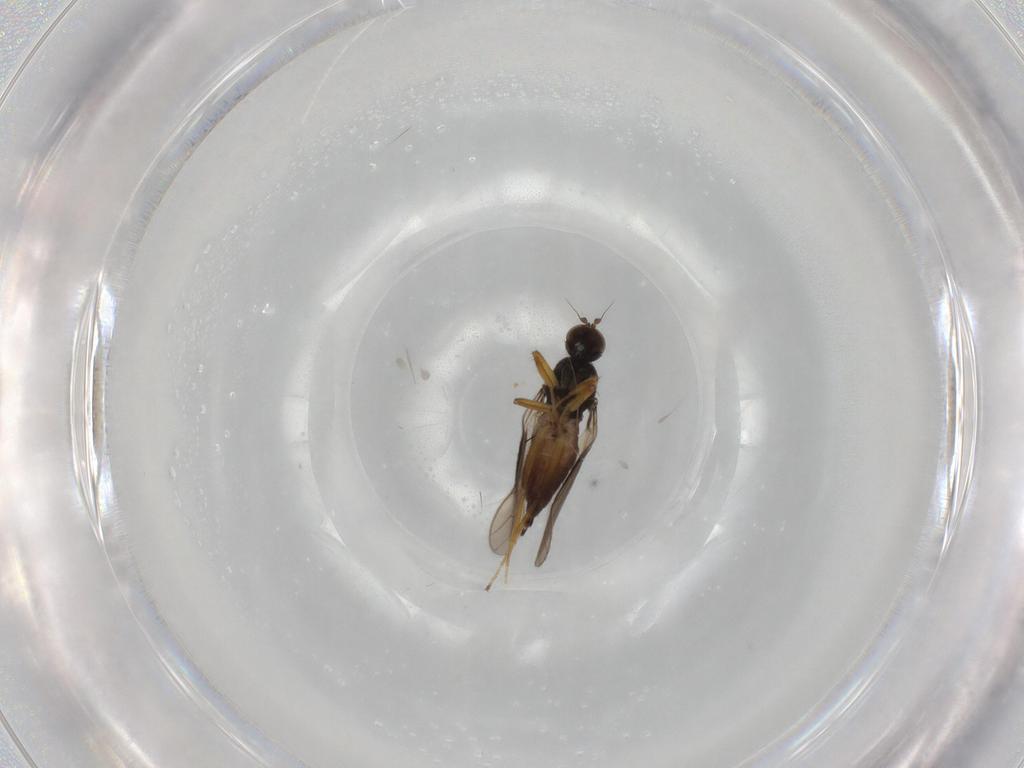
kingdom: Animalia
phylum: Arthropoda
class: Insecta
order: Diptera
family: Hybotidae
